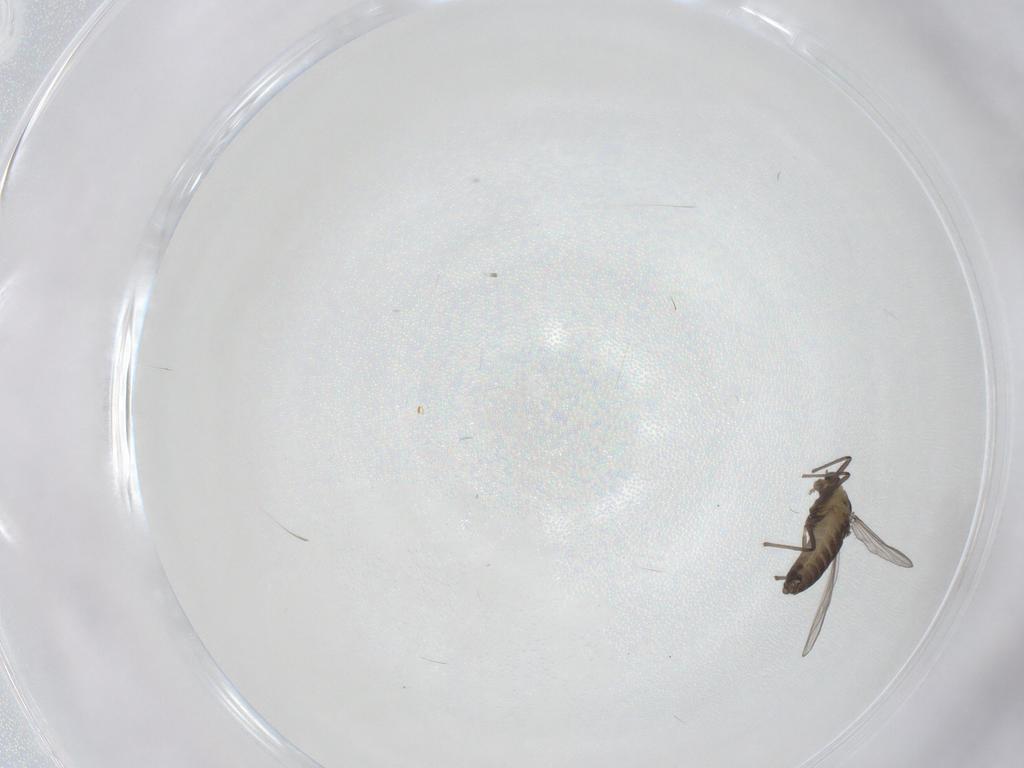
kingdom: Animalia
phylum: Arthropoda
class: Insecta
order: Diptera
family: Chironomidae
